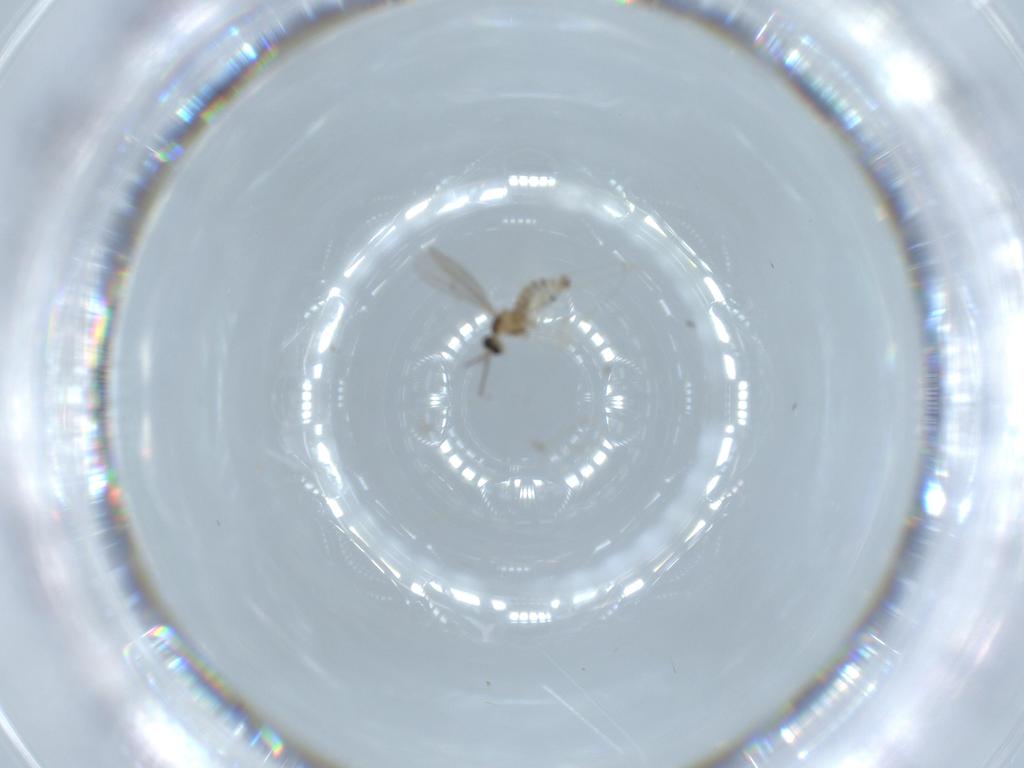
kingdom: Animalia
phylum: Arthropoda
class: Insecta
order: Diptera
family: Cecidomyiidae
